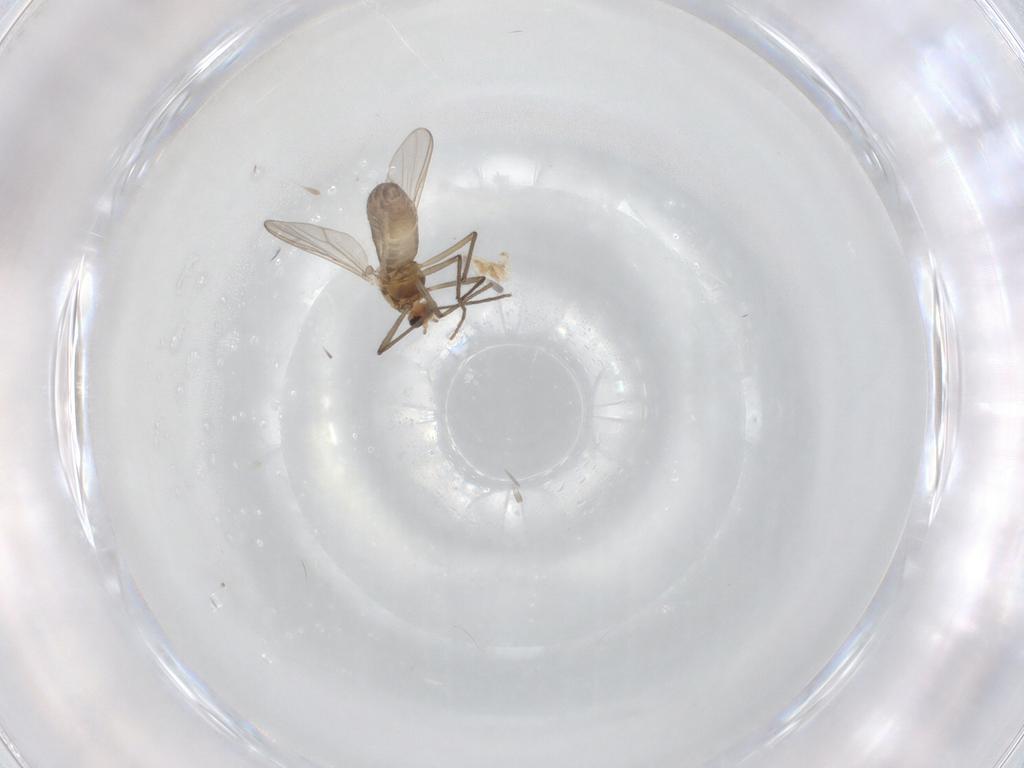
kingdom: Animalia
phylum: Arthropoda
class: Insecta
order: Diptera
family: Chironomidae
